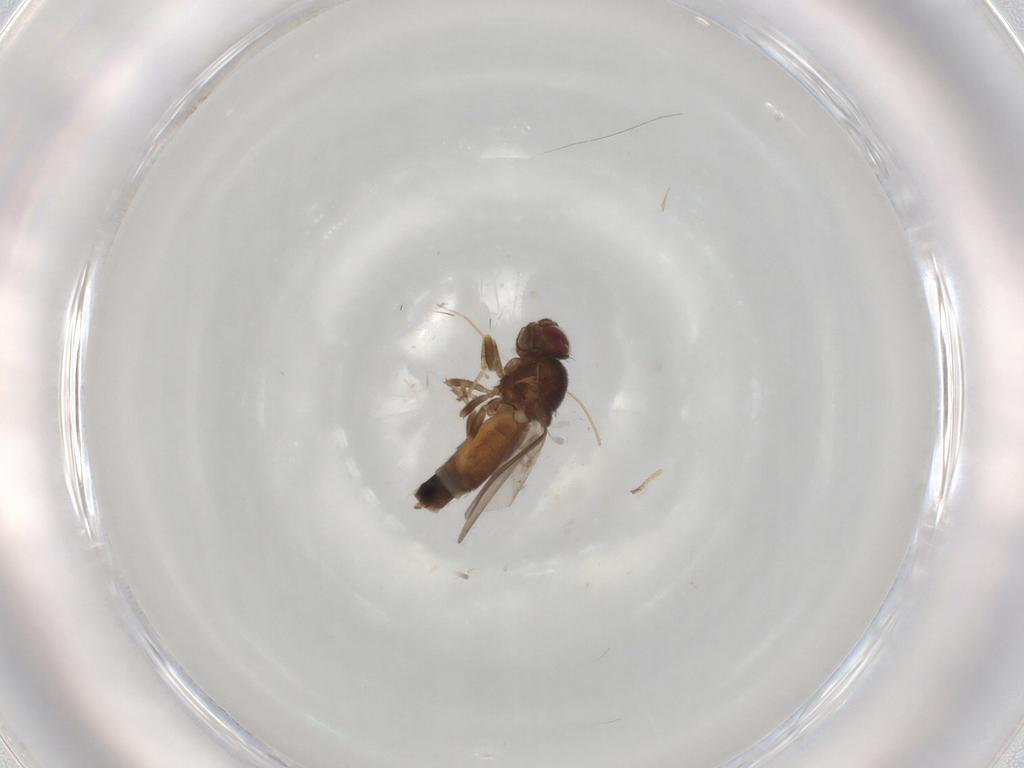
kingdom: Animalia
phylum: Arthropoda
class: Insecta
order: Diptera
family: Chloropidae
